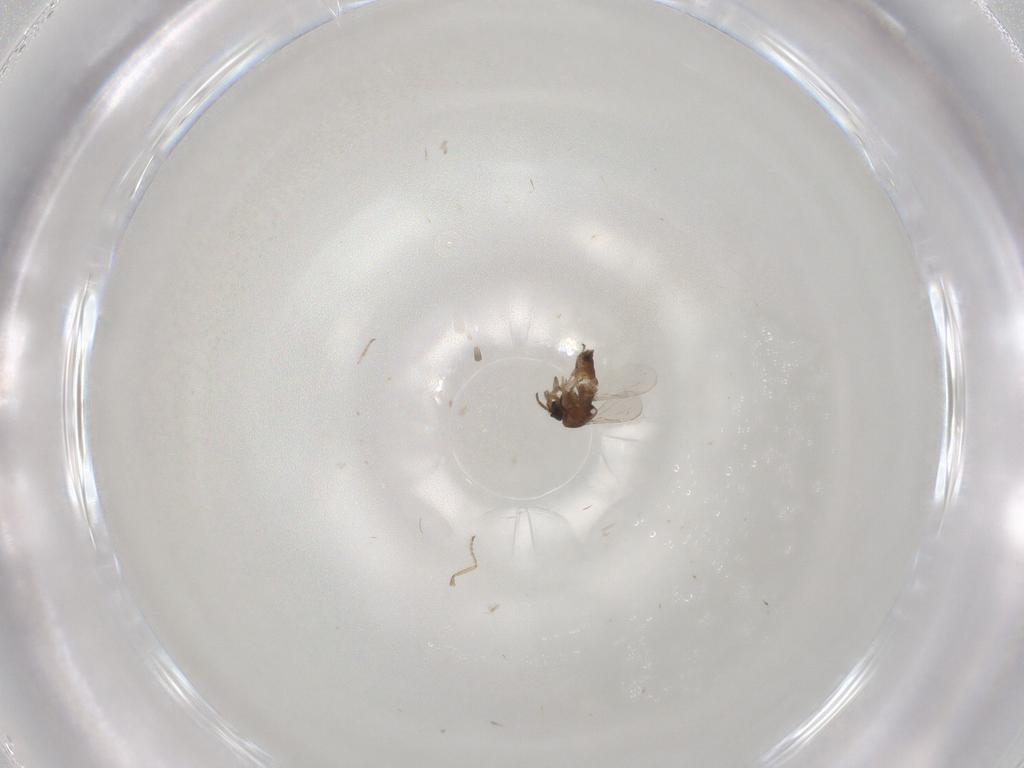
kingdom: Animalia
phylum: Arthropoda
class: Insecta
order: Diptera
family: Ceratopogonidae
